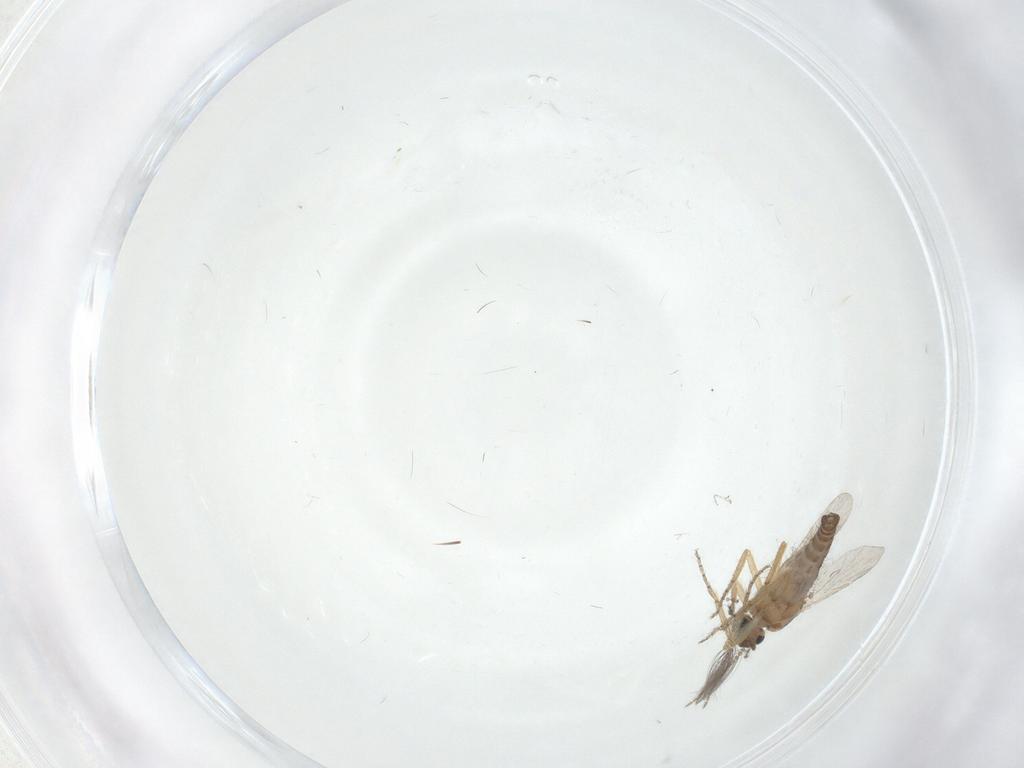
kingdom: Animalia
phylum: Arthropoda
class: Insecta
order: Diptera
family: Ceratopogonidae
